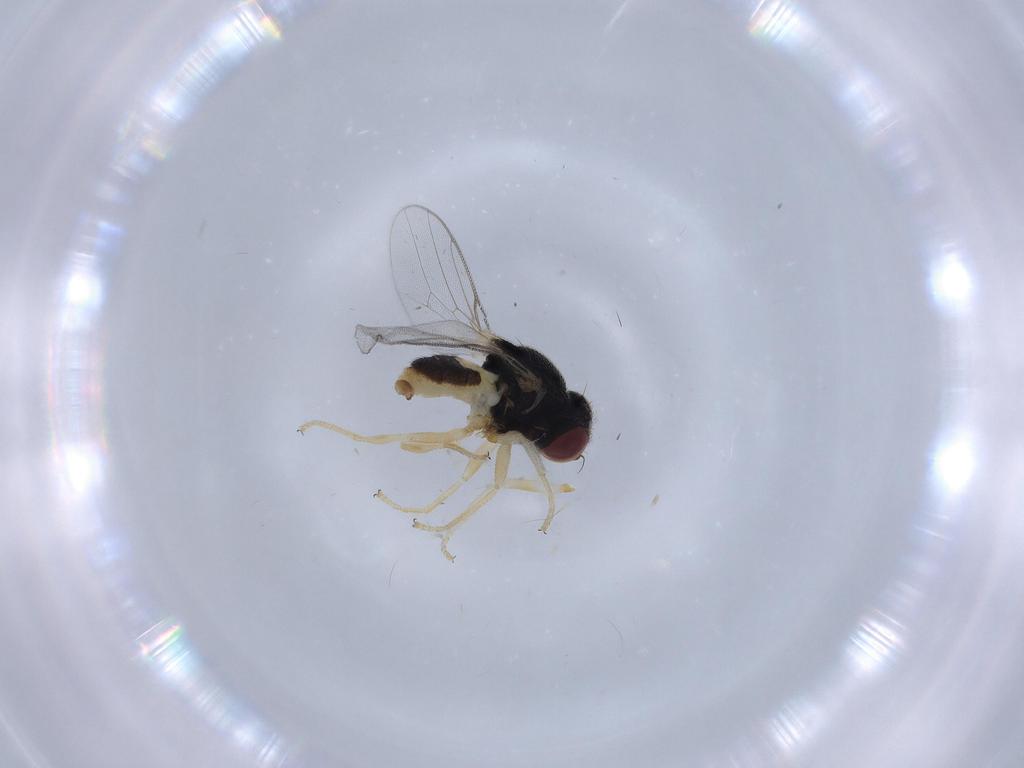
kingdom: Animalia
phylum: Arthropoda
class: Insecta
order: Diptera
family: Chloropidae
